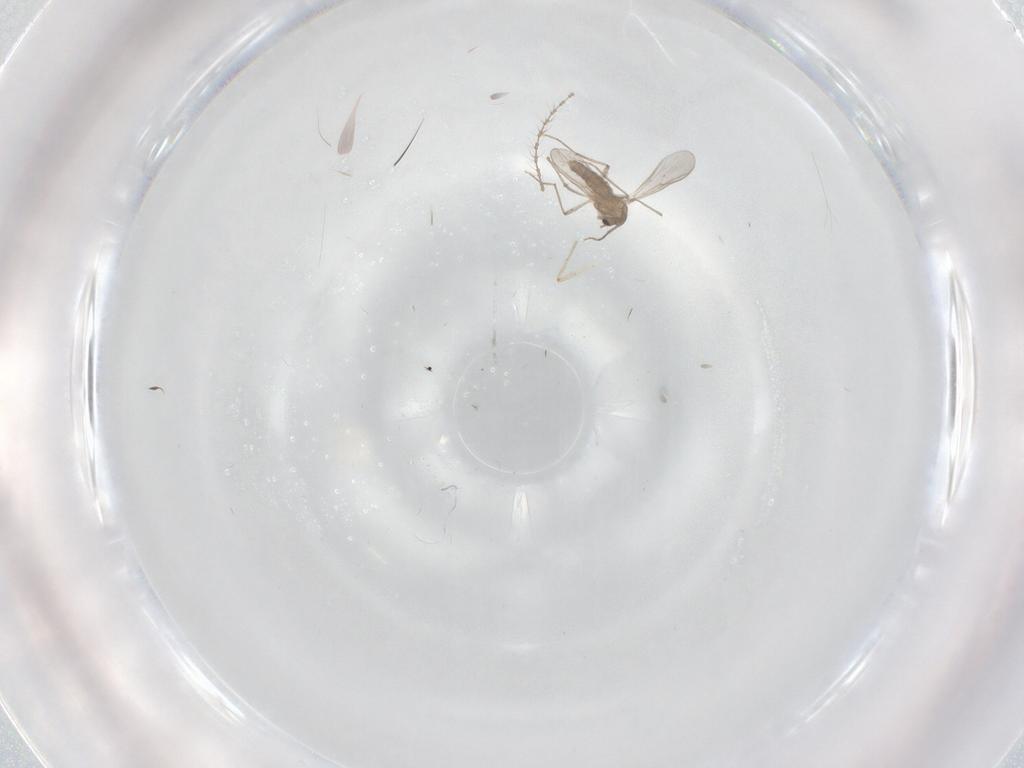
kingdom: Animalia
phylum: Arthropoda
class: Insecta
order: Diptera
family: Chironomidae
